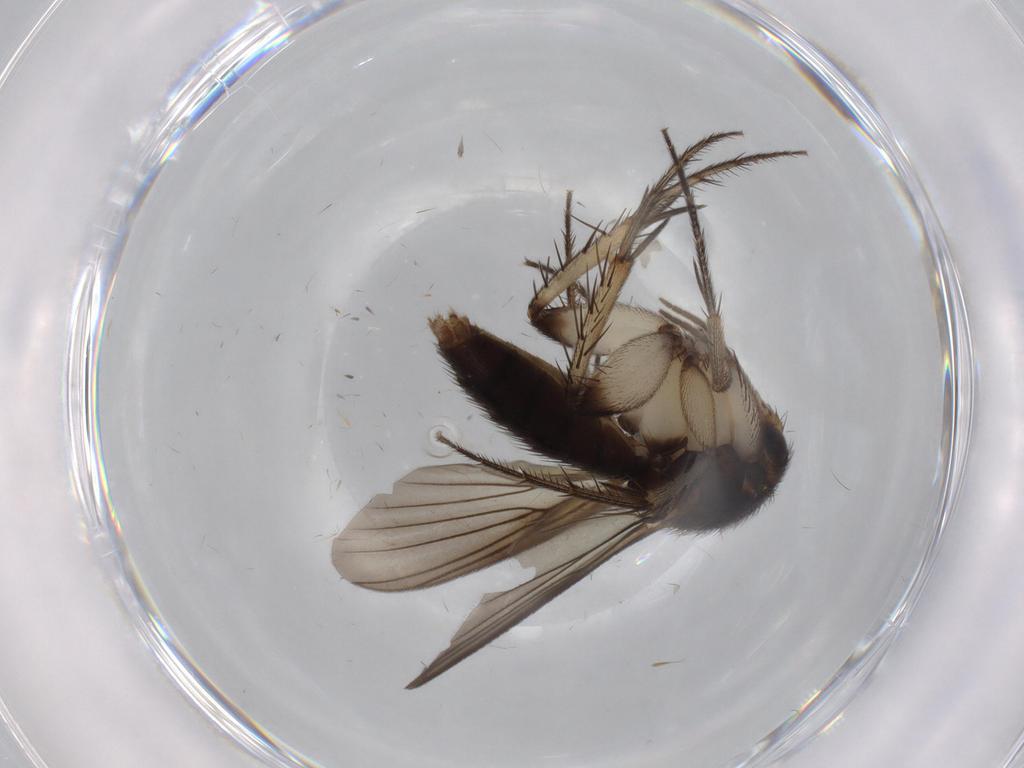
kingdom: Animalia
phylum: Arthropoda
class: Insecta
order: Diptera
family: Mycetophilidae
